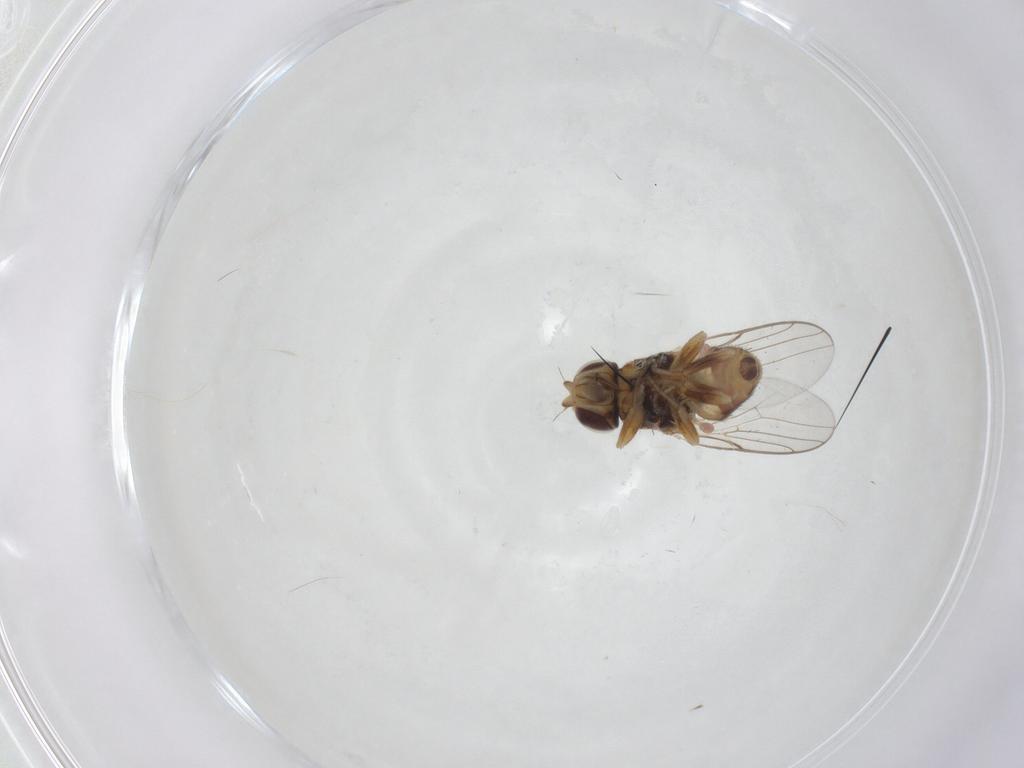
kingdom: Animalia
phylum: Arthropoda
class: Insecta
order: Diptera
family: Chloropidae
